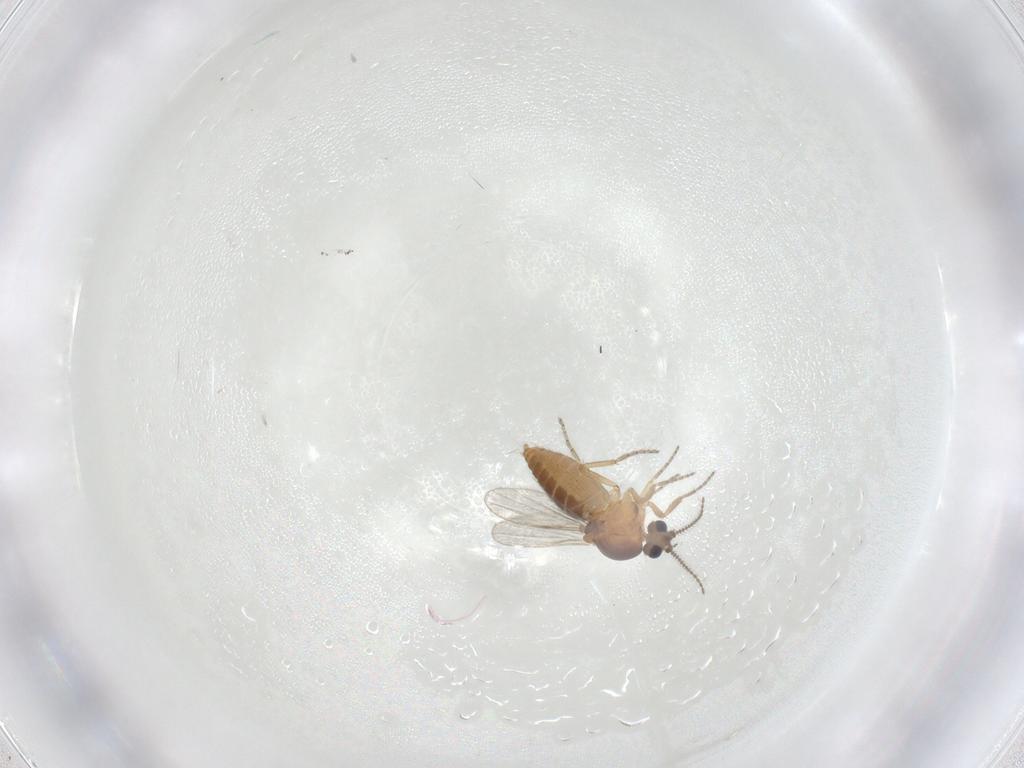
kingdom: Animalia
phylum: Arthropoda
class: Insecta
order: Diptera
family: Ceratopogonidae
